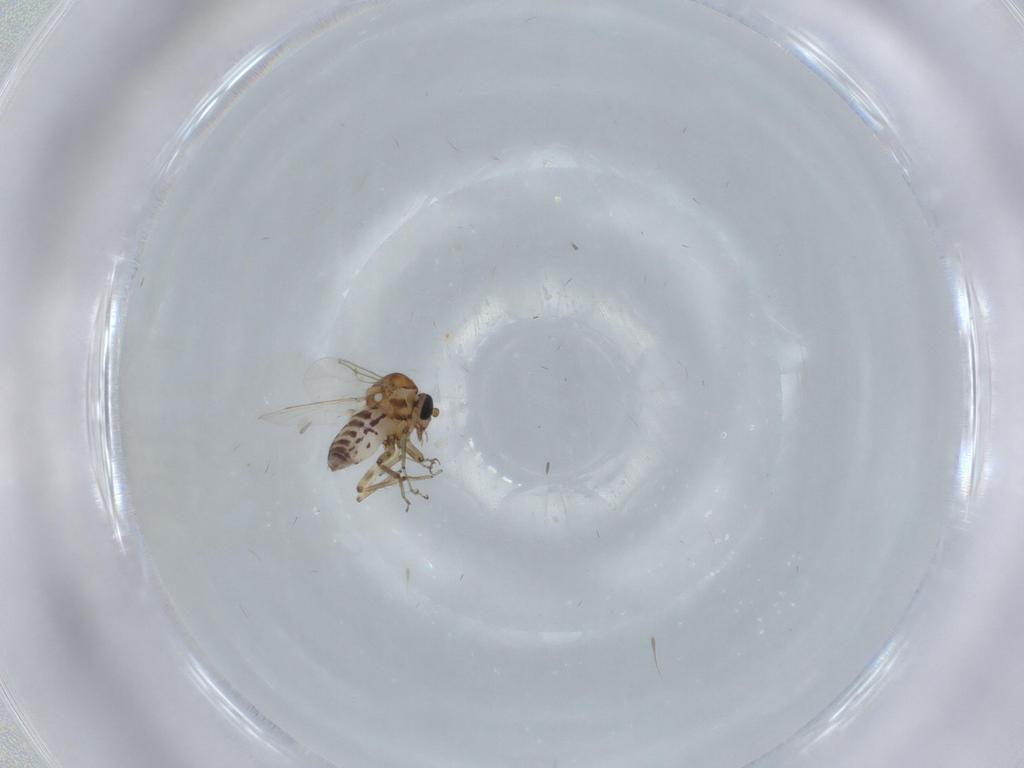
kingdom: Animalia
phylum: Arthropoda
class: Insecta
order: Diptera
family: Ceratopogonidae
